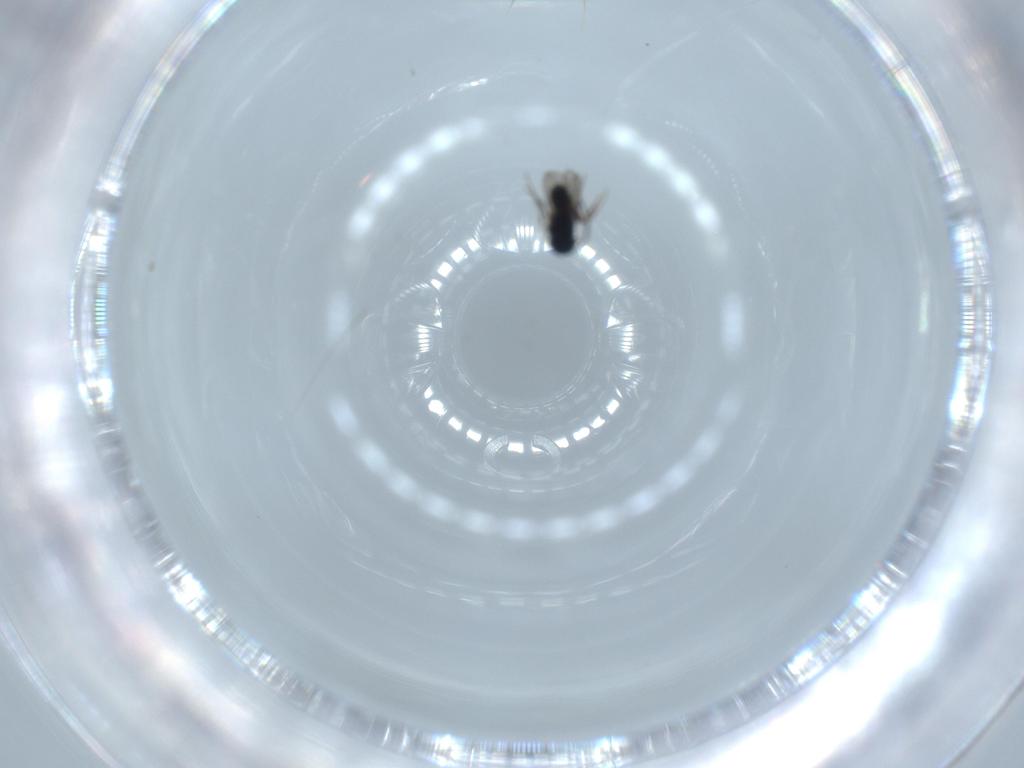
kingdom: Animalia
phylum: Arthropoda
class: Insecta
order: Hymenoptera
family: Scelionidae
